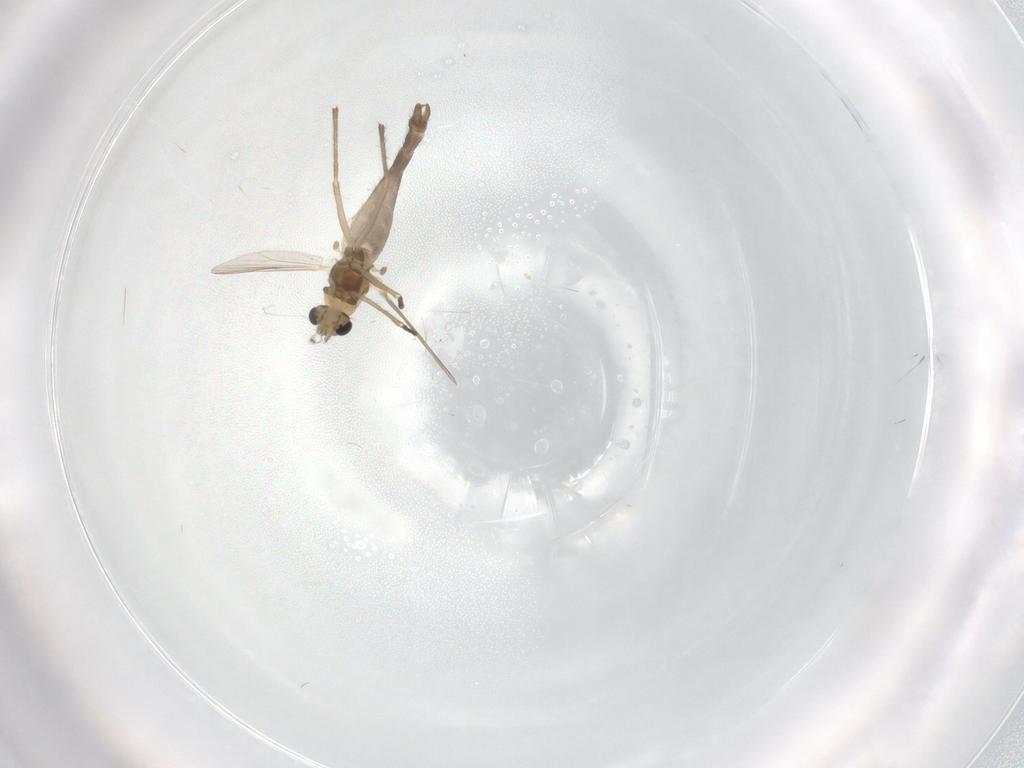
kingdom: Animalia
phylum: Arthropoda
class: Insecta
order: Diptera
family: Chironomidae
